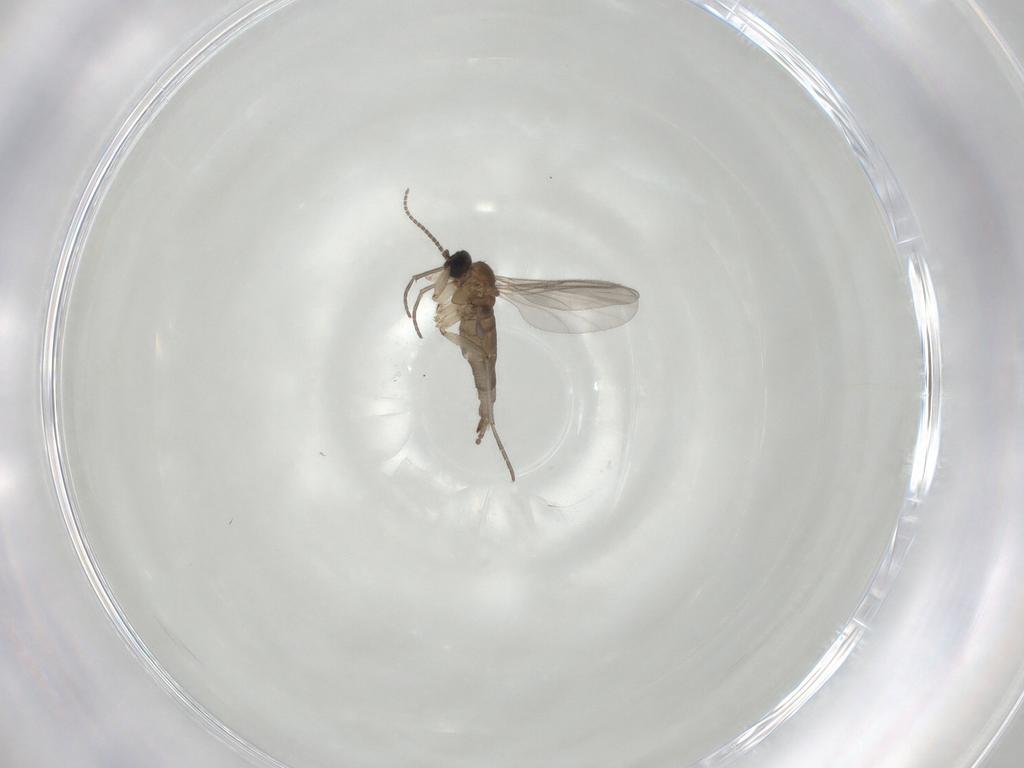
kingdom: Animalia
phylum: Arthropoda
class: Insecta
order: Diptera
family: Sciaridae
